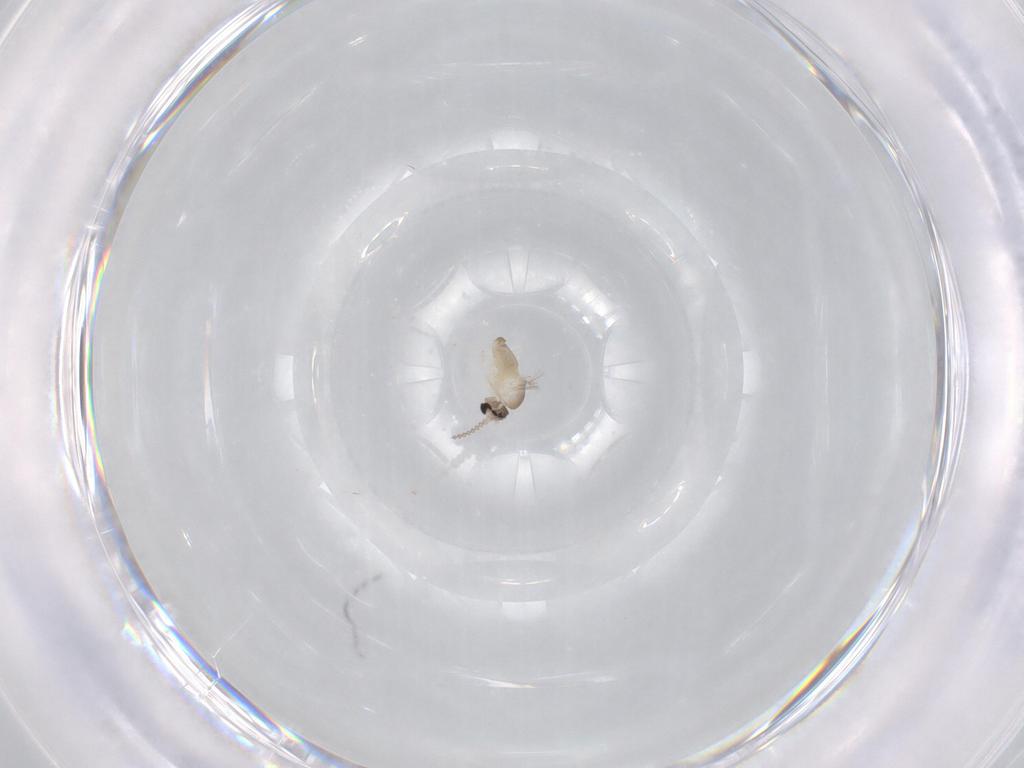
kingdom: Animalia
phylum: Arthropoda
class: Insecta
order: Diptera
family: Cecidomyiidae
